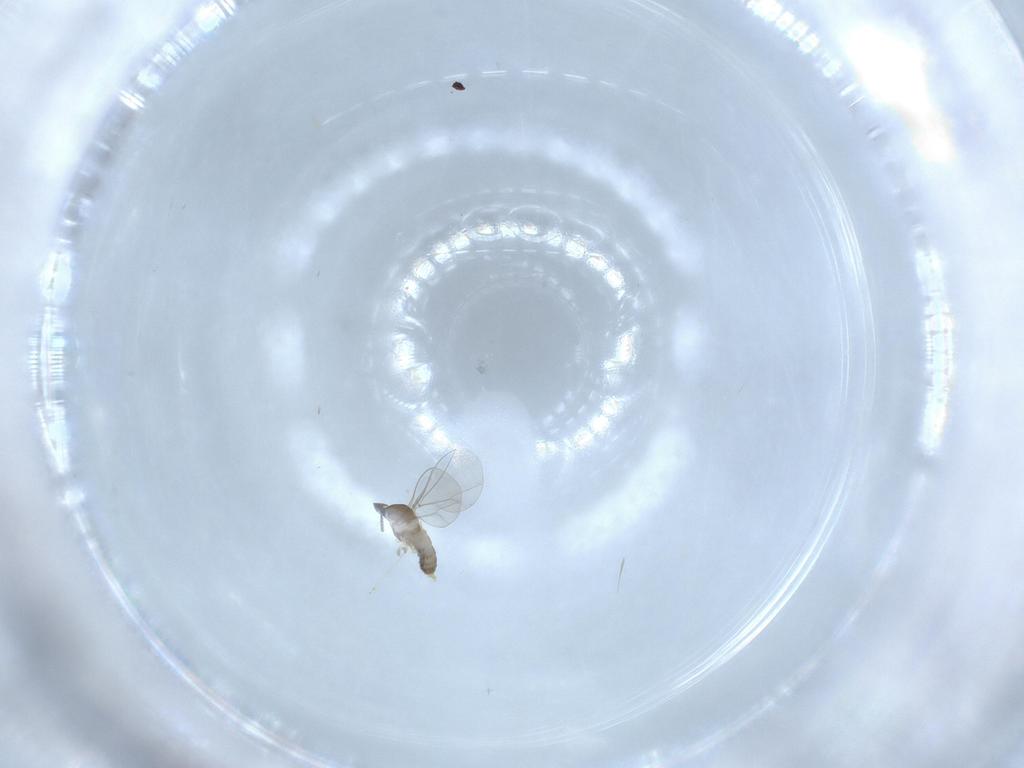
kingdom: Animalia
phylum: Arthropoda
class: Insecta
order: Diptera
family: Cecidomyiidae
